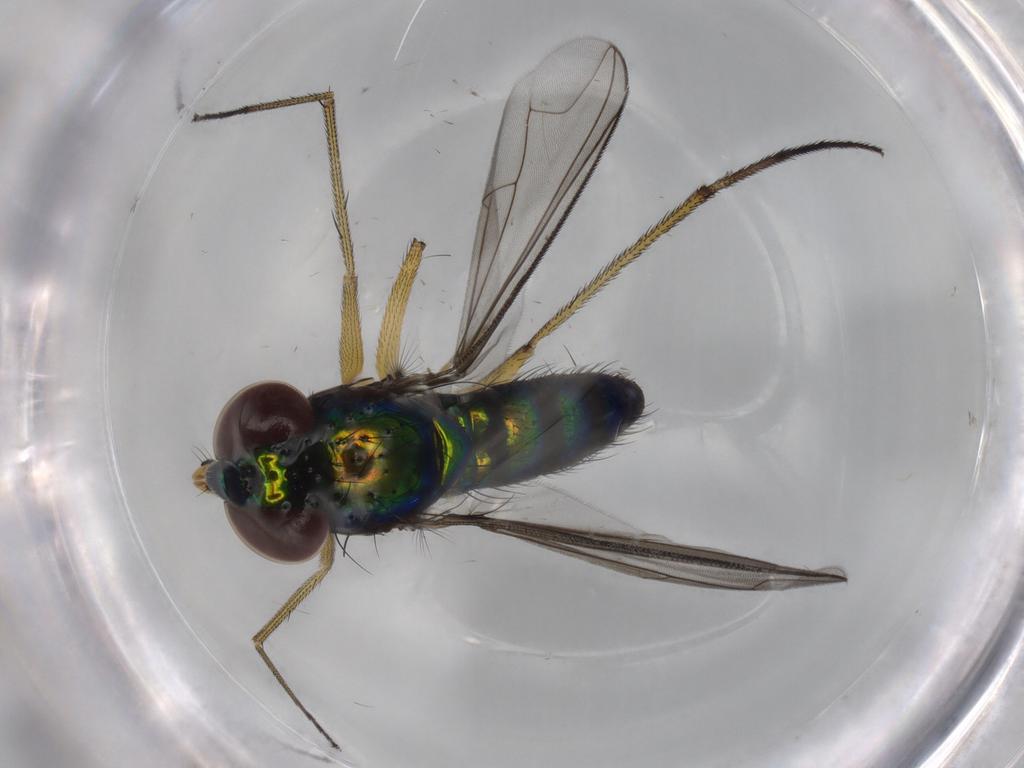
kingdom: Animalia
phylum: Arthropoda
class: Insecta
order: Diptera
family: Dolichopodidae
